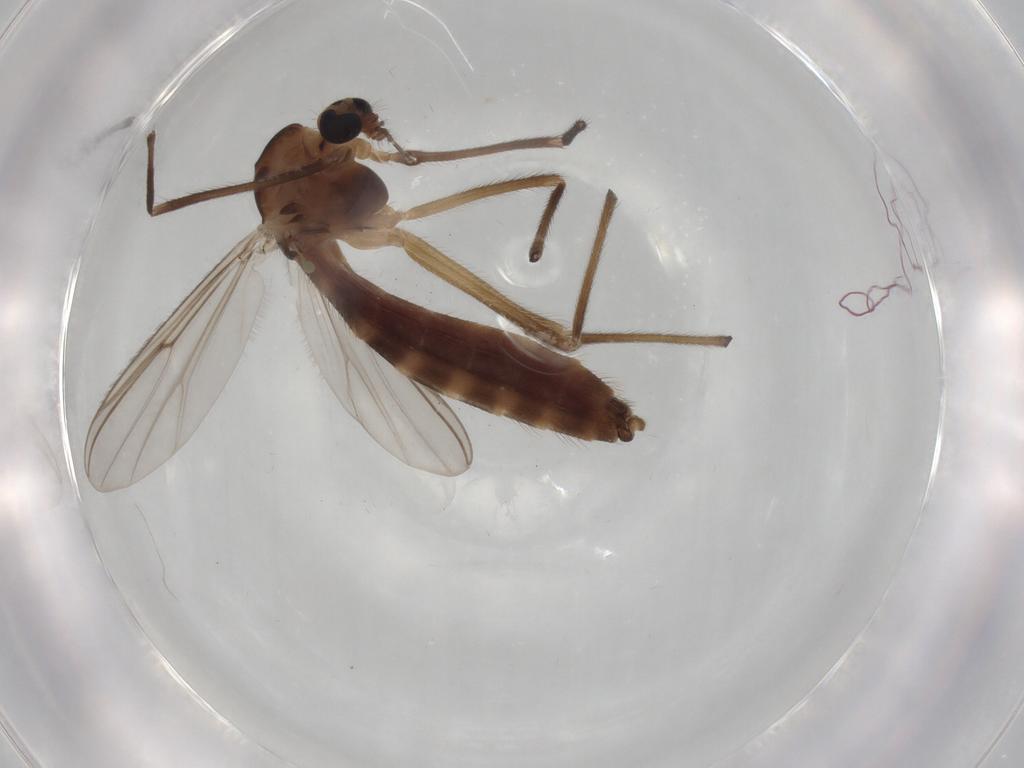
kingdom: Animalia
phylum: Arthropoda
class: Insecta
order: Diptera
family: Chironomidae
